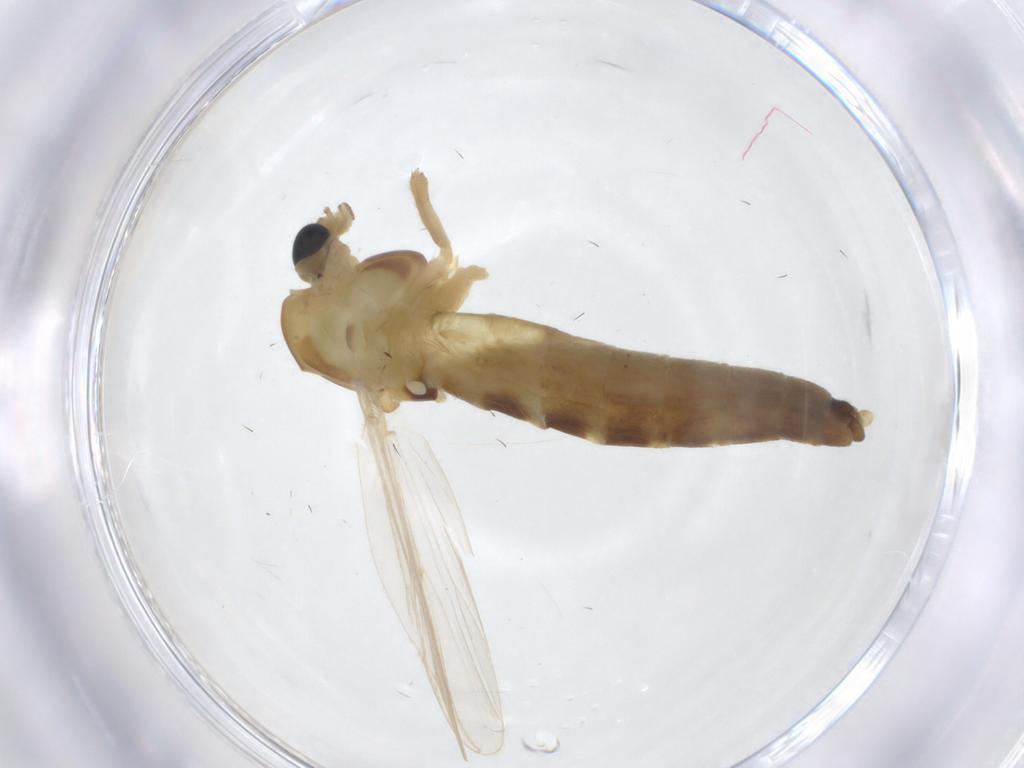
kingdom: Animalia
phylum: Arthropoda
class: Insecta
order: Diptera
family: Chironomidae
